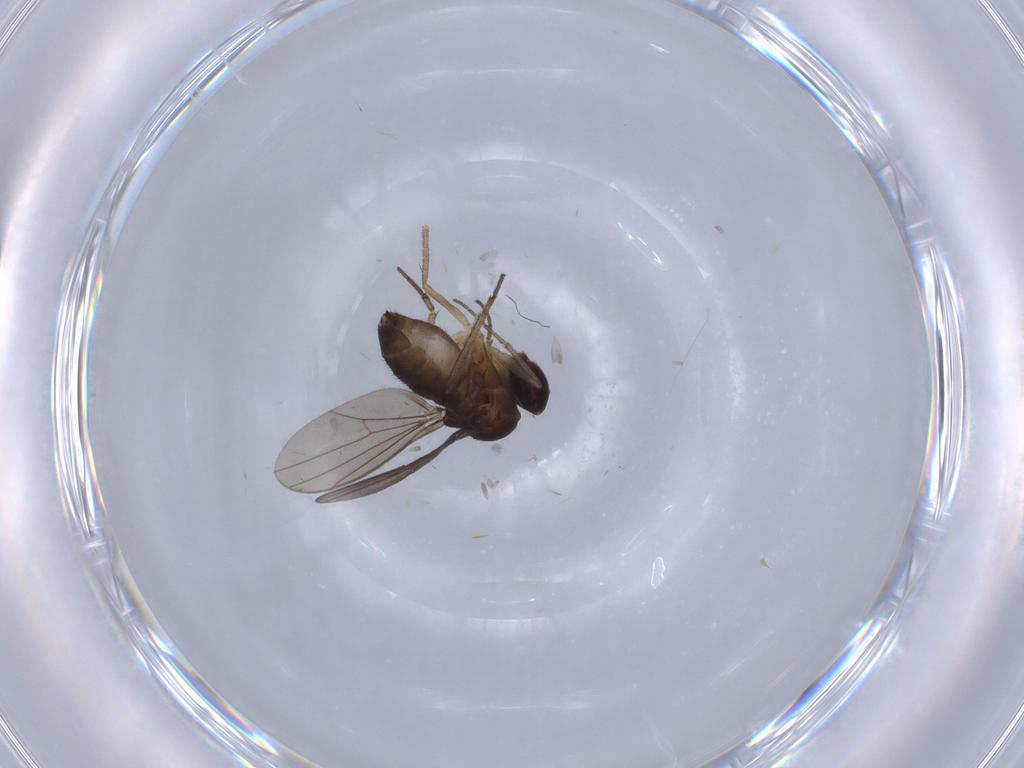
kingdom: Animalia
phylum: Arthropoda
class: Insecta
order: Diptera
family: Dolichopodidae
